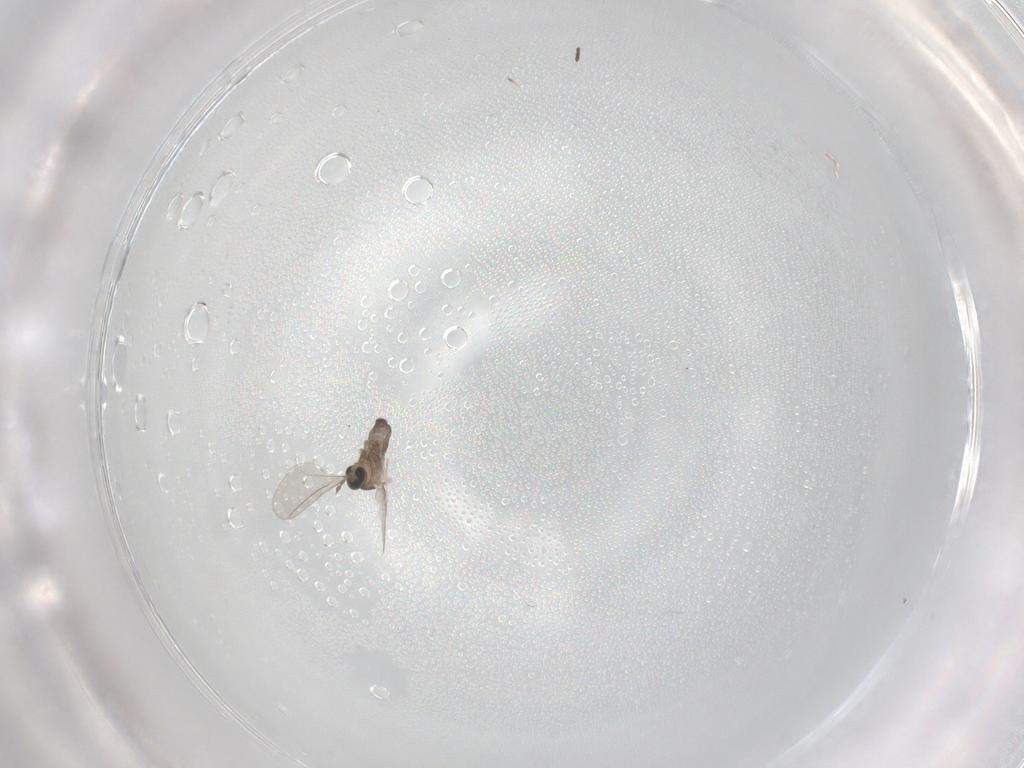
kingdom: Animalia
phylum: Arthropoda
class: Insecta
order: Diptera
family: Cecidomyiidae
